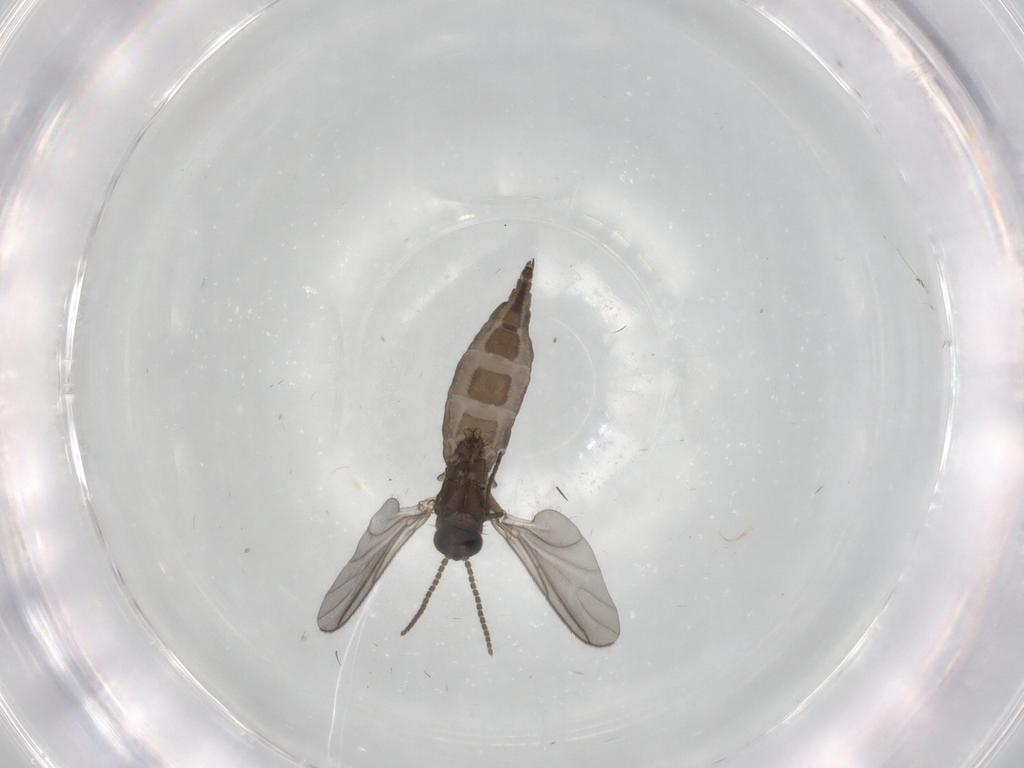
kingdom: Animalia
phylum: Arthropoda
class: Insecta
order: Diptera
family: Sciaridae
